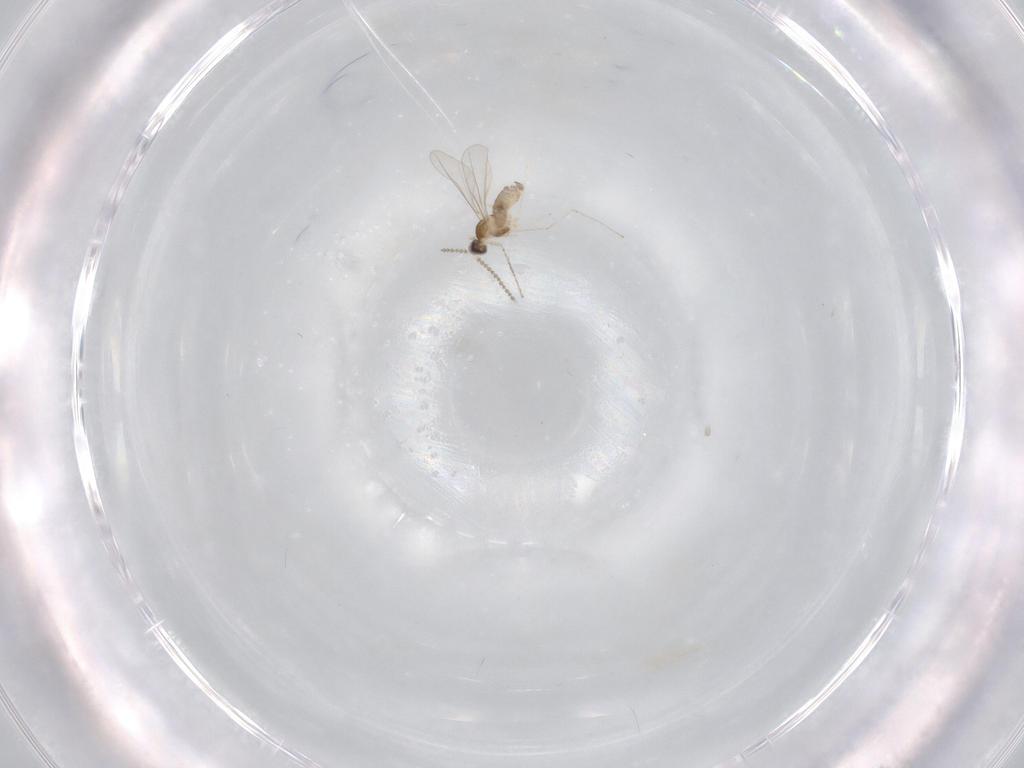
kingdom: Animalia
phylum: Arthropoda
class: Insecta
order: Diptera
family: Cecidomyiidae
